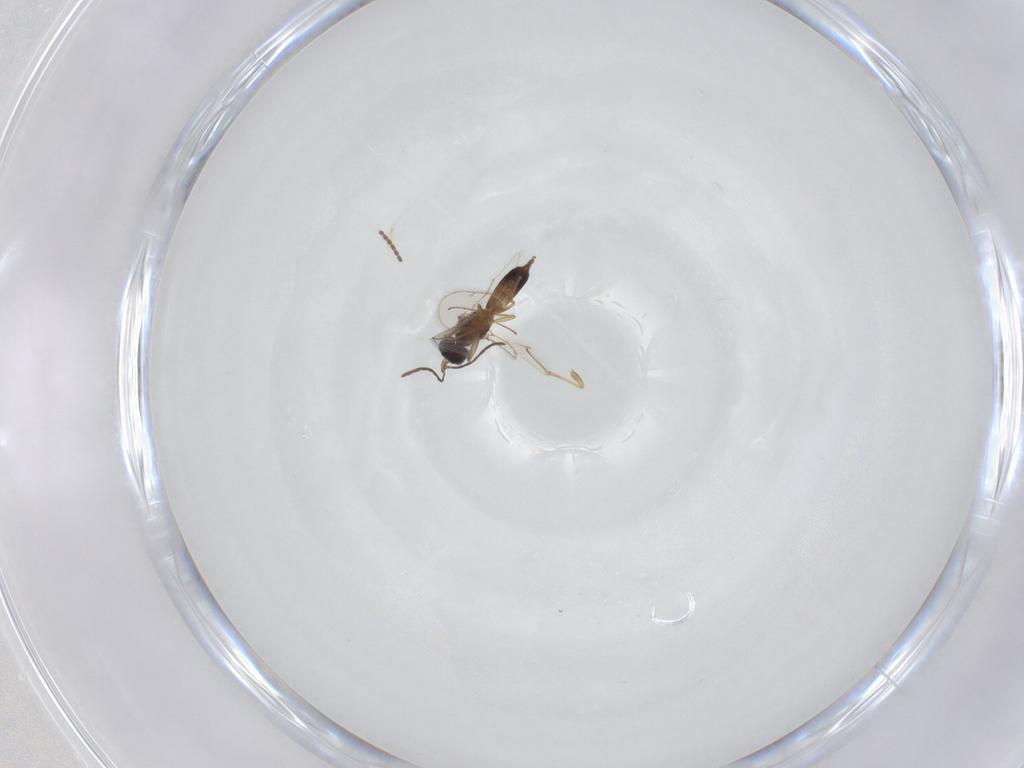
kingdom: Animalia
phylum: Arthropoda
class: Insecta
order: Diptera
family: Sciaridae
